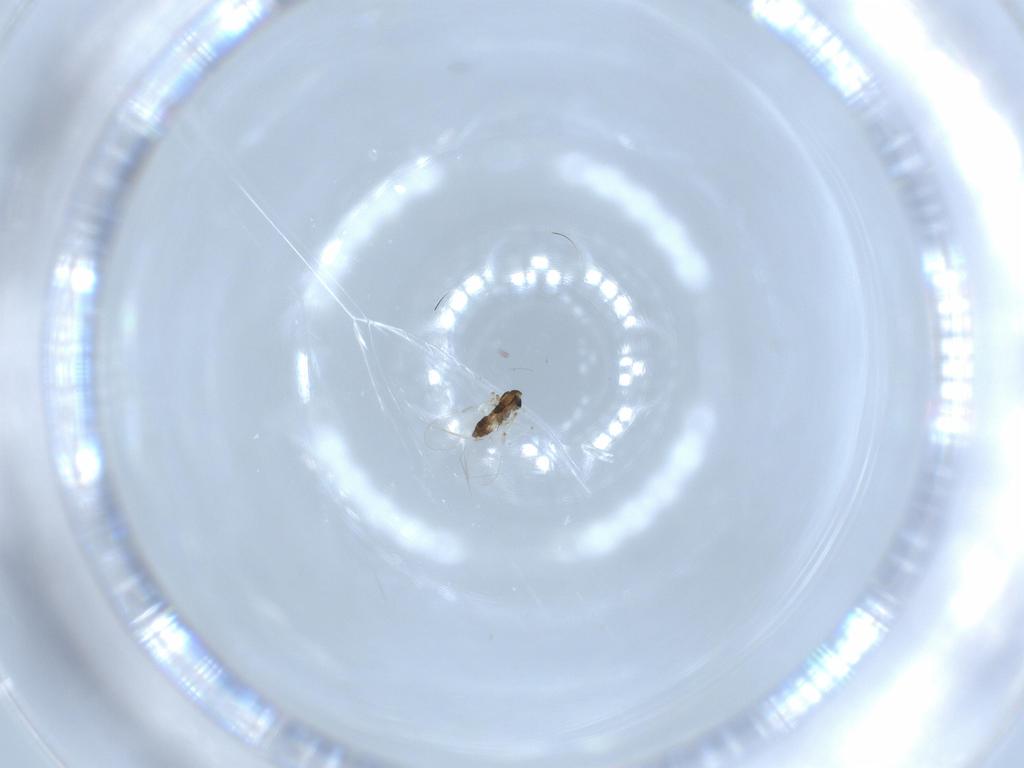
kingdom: Animalia
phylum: Arthropoda
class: Insecta
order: Diptera
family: Chironomidae
